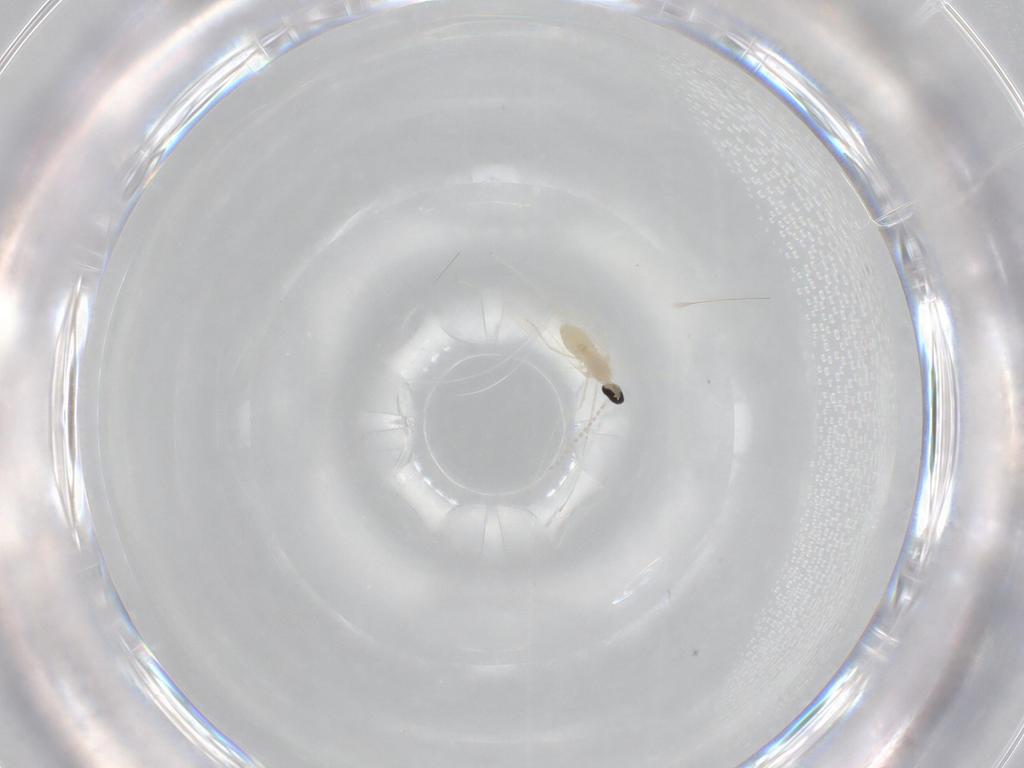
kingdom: Animalia
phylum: Arthropoda
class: Insecta
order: Diptera
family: Cecidomyiidae
